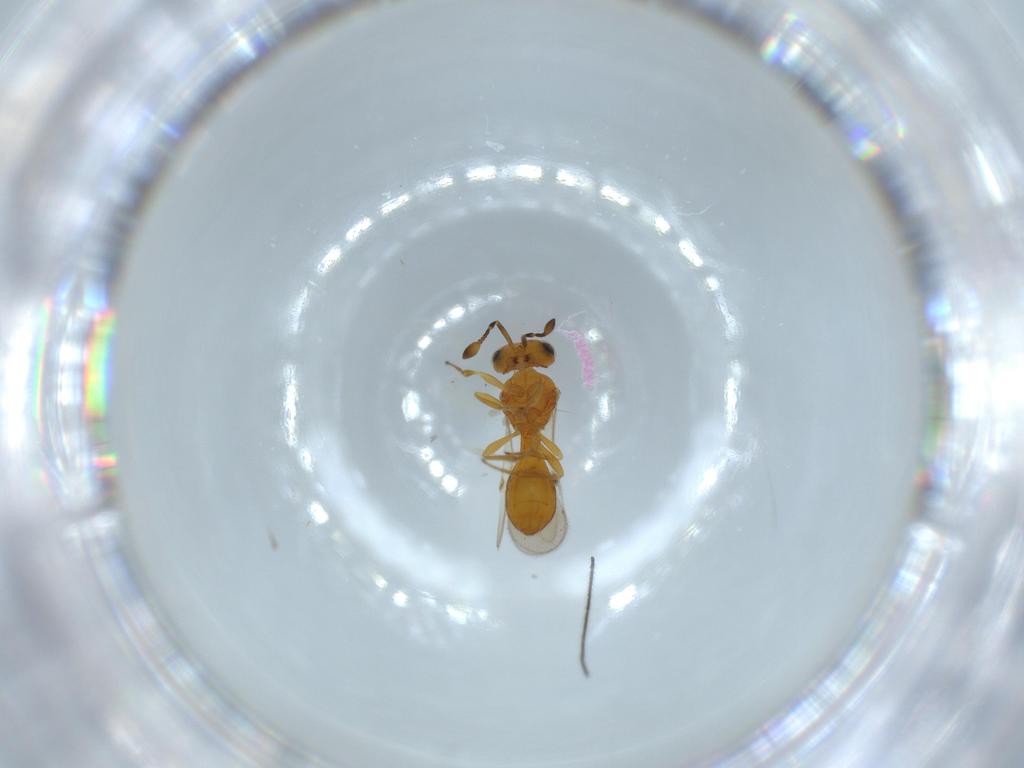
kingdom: Animalia
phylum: Arthropoda
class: Insecta
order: Hymenoptera
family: Scelionidae
